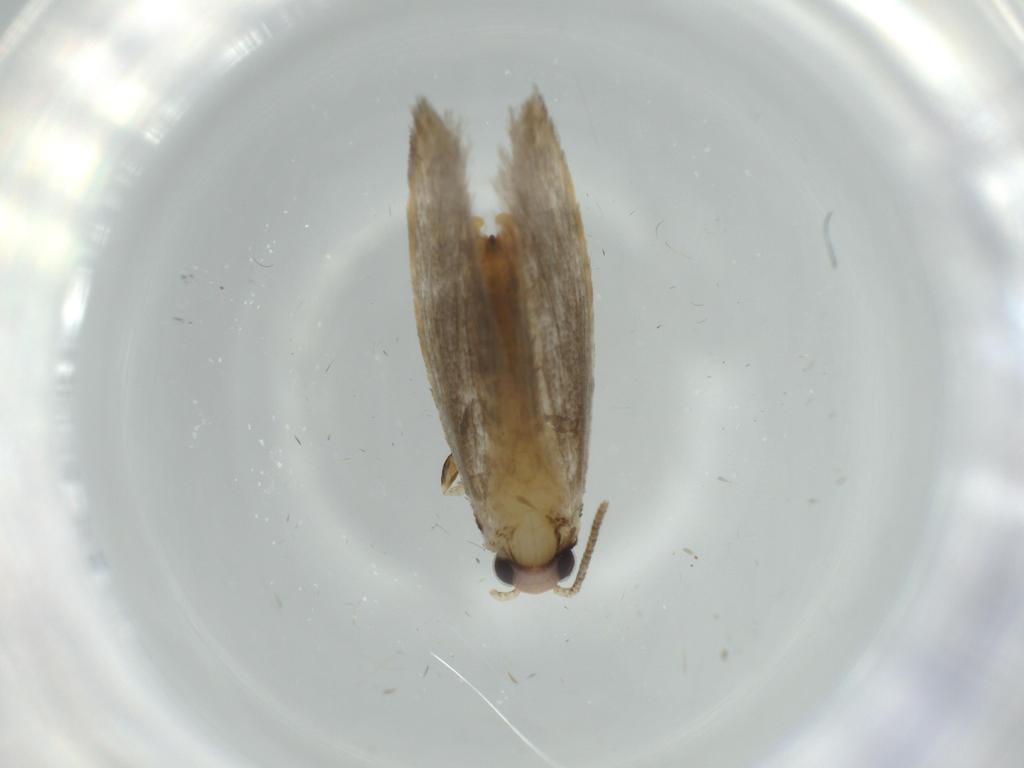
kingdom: Animalia
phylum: Arthropoda
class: Insecta
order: Lepidoptera
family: Tineidae
